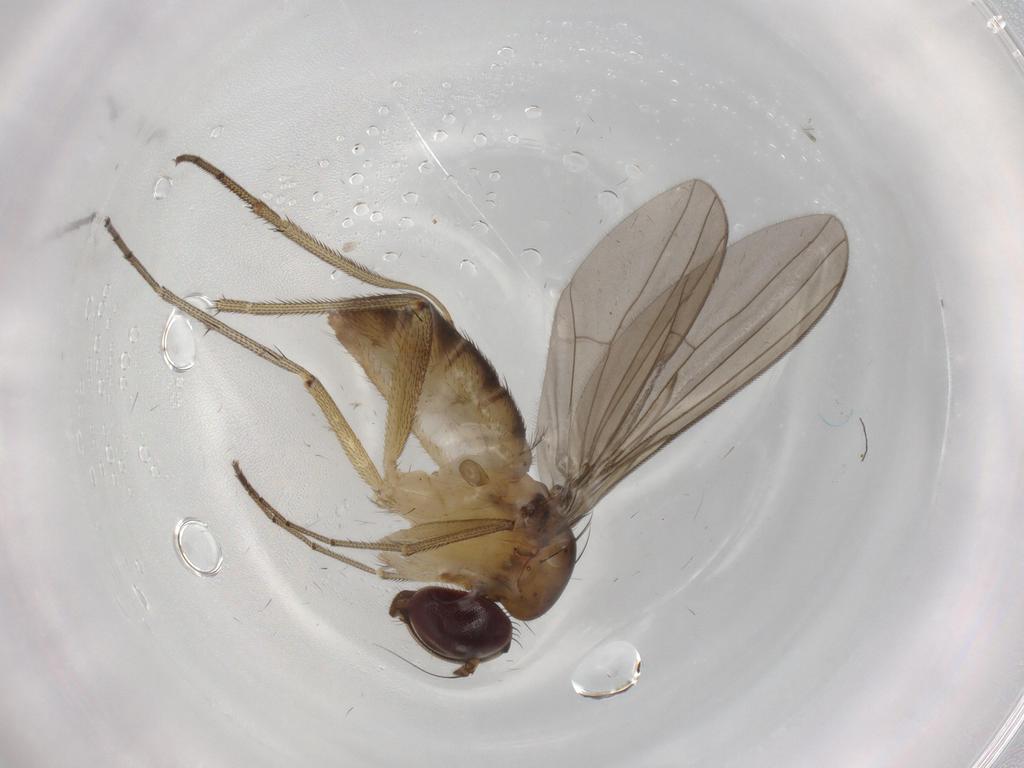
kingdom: Animalia
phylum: Arthropoda
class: Insecta
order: Diptera
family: Dolichopodidae
